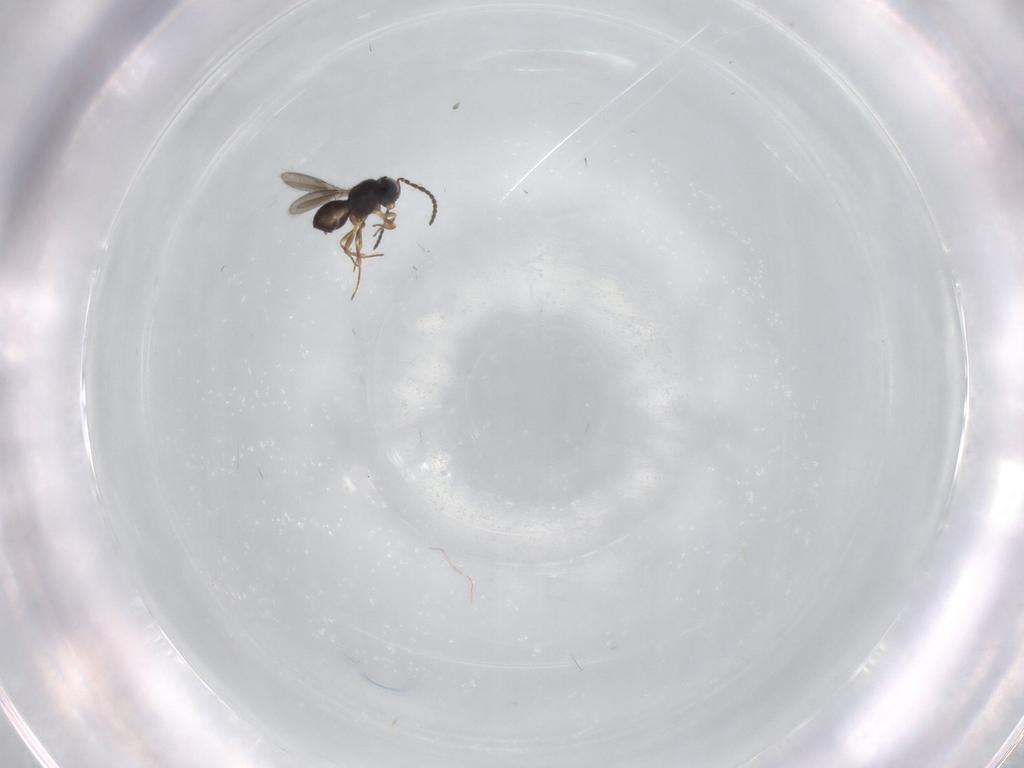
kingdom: Animalia
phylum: Arthropoda
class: Insecta
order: Hymenoptera
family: Scelionidae
